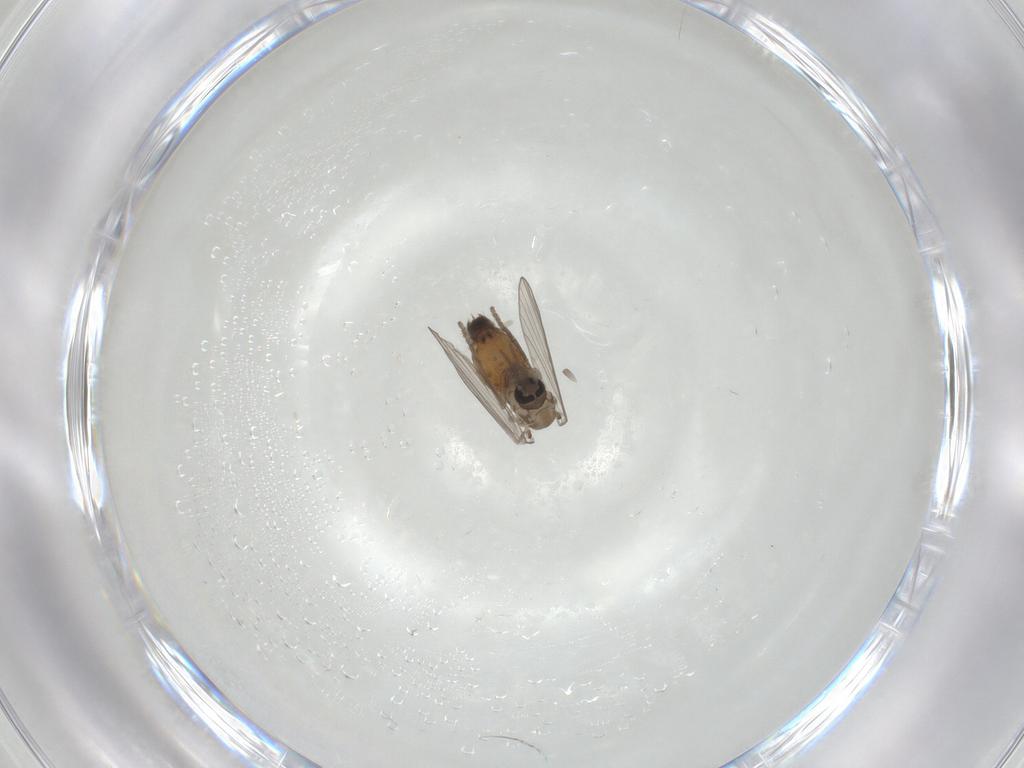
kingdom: Animalia
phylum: Arthropoda
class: Insecta
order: Diptera
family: Psychodidae
